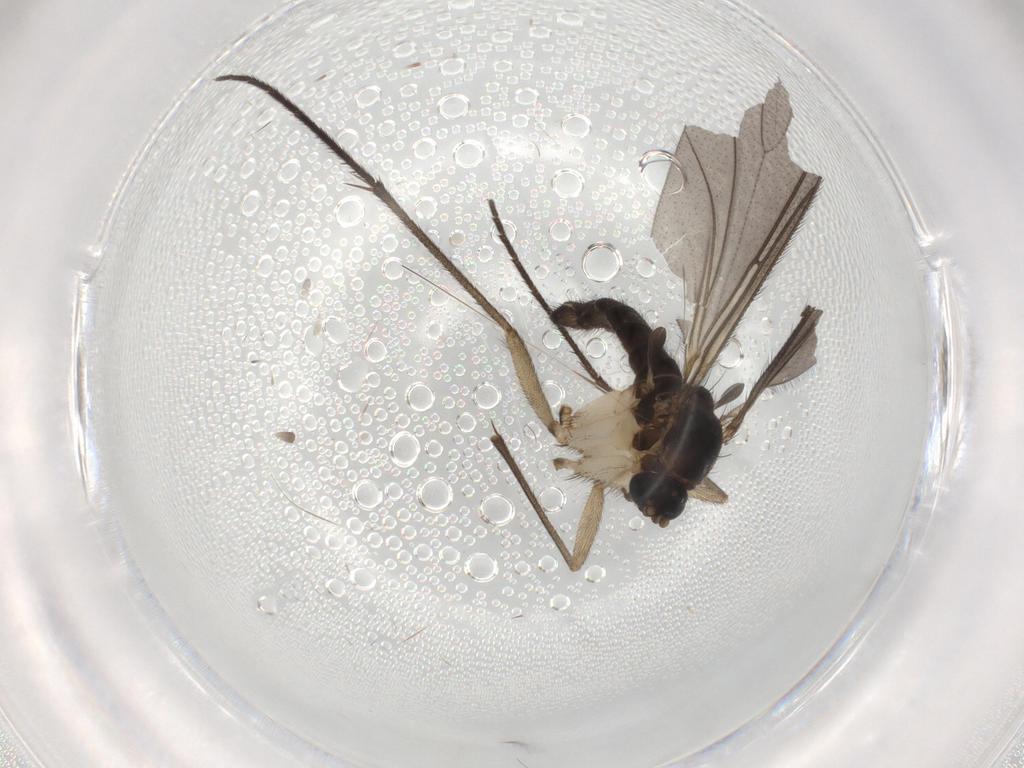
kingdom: Animalia
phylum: Arthropoda
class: Insecta
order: Diptera
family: Sciaridae
